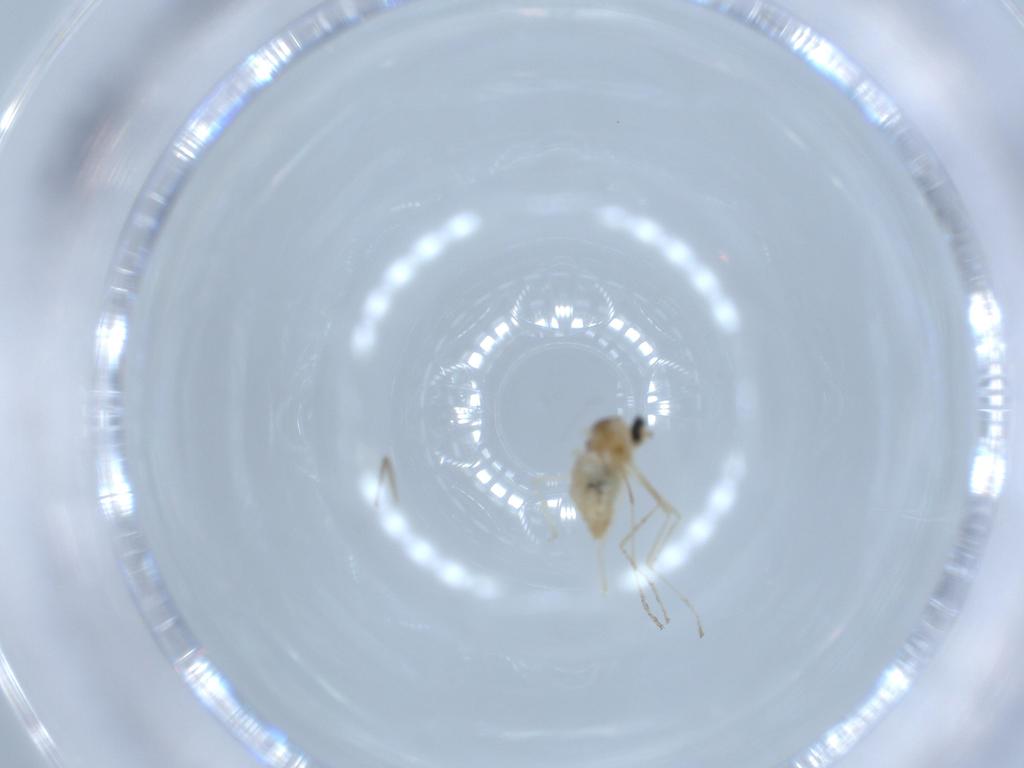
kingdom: Animalia
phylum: Arthropoda
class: Insecta
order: Diptera
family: Cecidomyiidae
